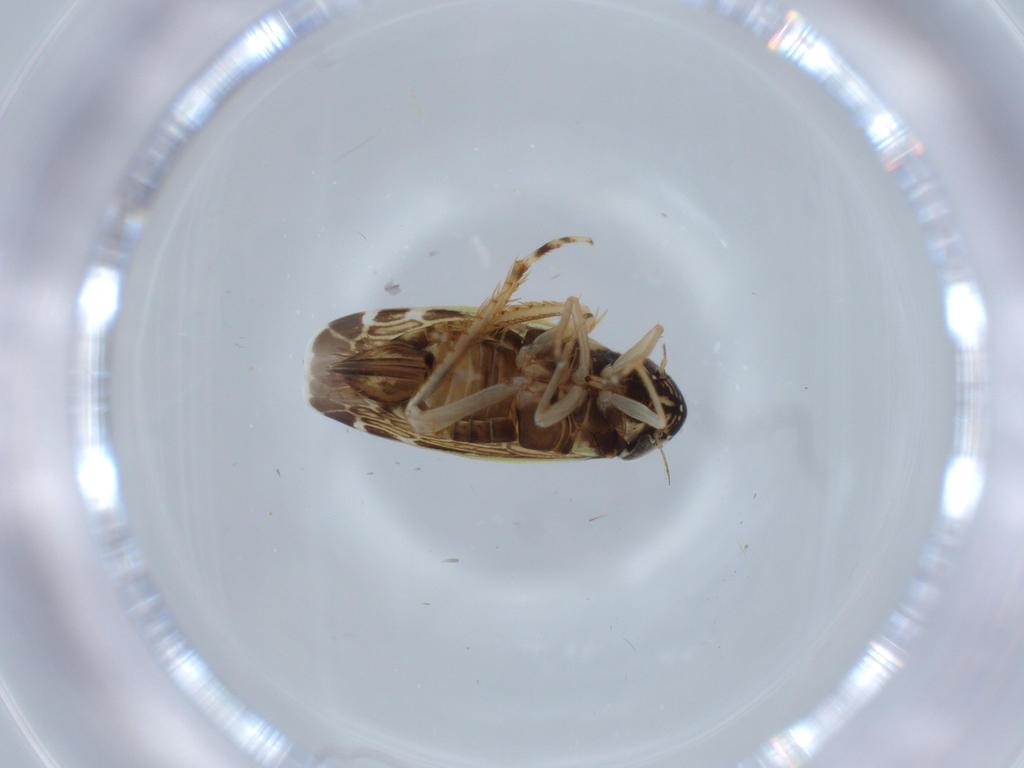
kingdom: Animalia
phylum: Arthropoda
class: Insecta
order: Hemiptera
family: Cicadellidae
